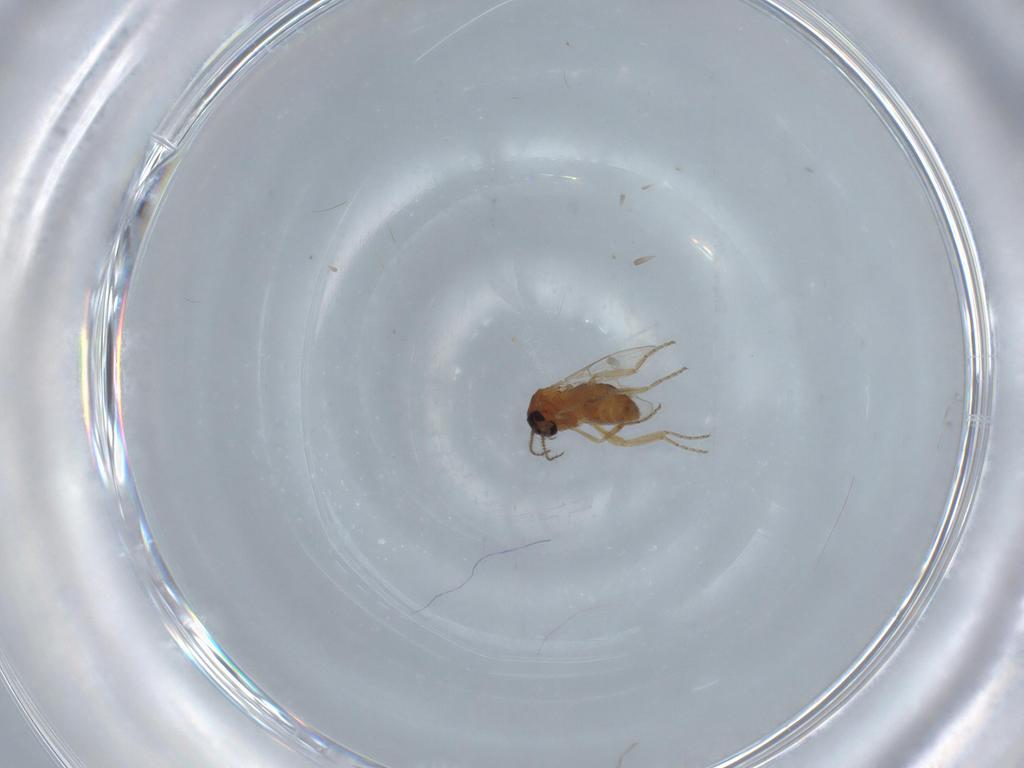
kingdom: Animalia
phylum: Arthropoda
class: Insecta
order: Diptera
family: Ceratopogonidae
